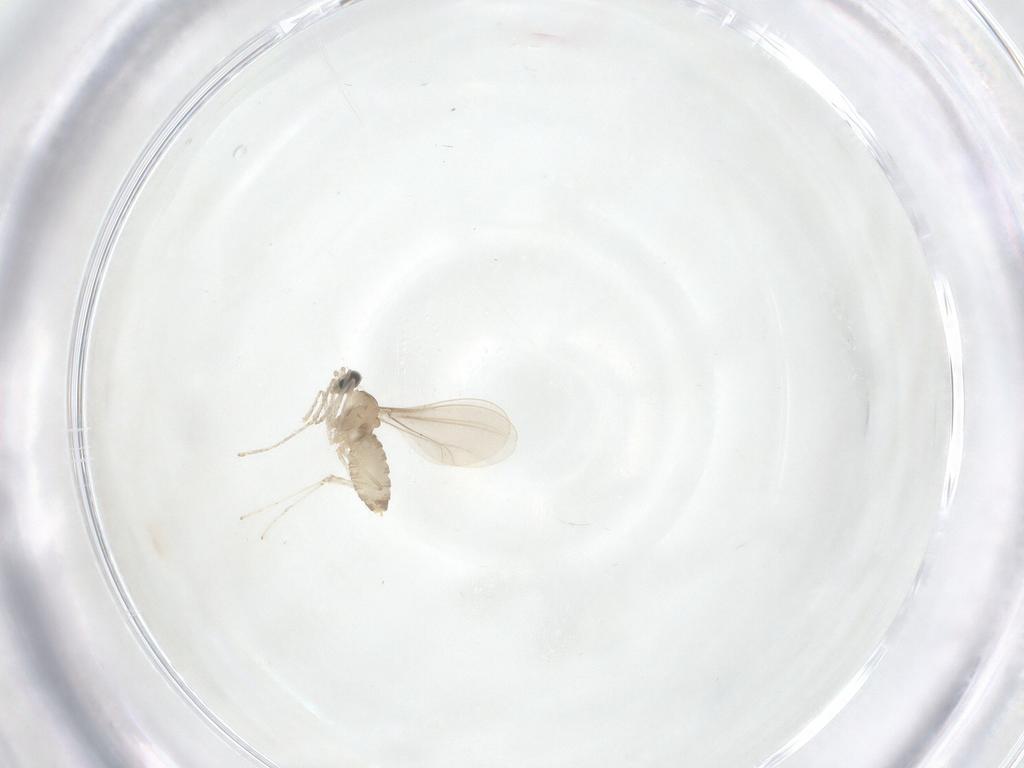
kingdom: Animalia
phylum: Arthropoda
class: Insecta
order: Diptera
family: Cecidomyiidae
